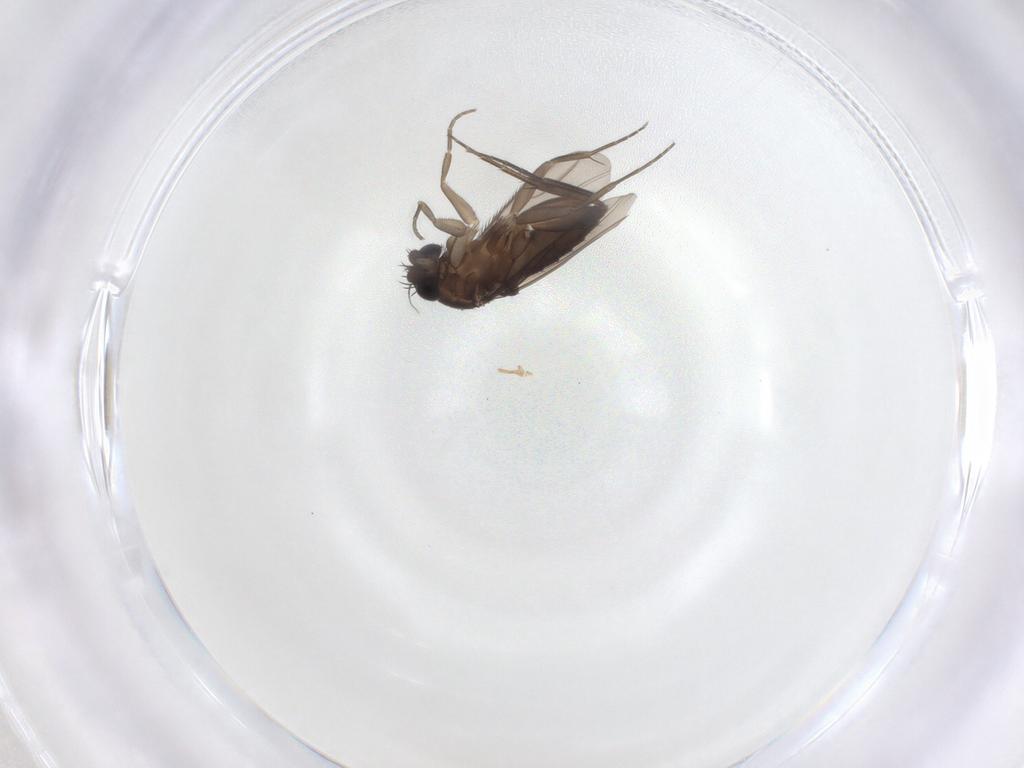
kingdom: Animalia
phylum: Arthropoda
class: Insecta
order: Diptera
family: Phoridae
